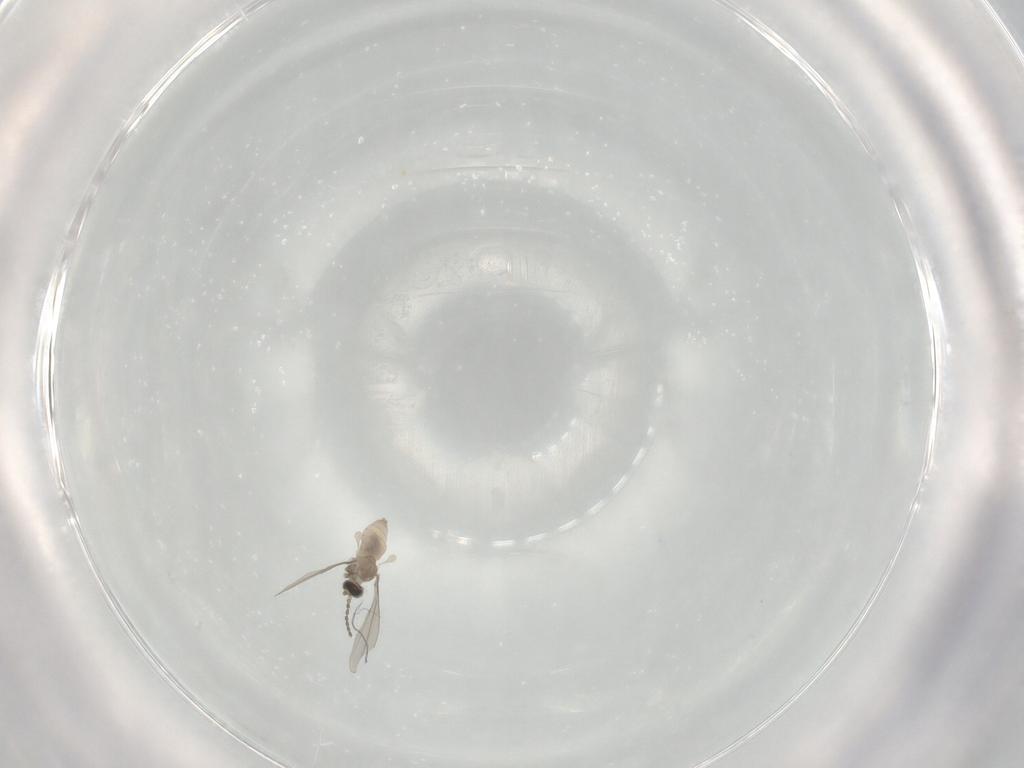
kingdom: Animalia
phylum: Arthropoda
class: Insecta
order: Diptera
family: Cecidomyiidae
